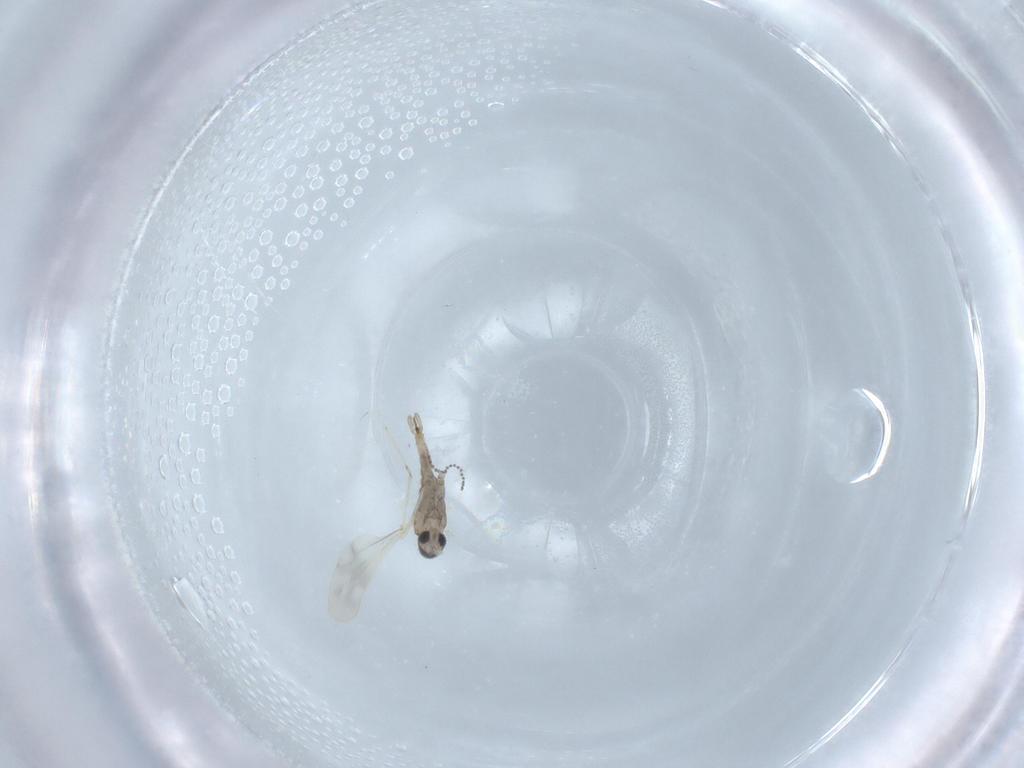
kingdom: Animalia
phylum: Arthropoda
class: Insecta
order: Diptera
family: Cecidomyiidae
